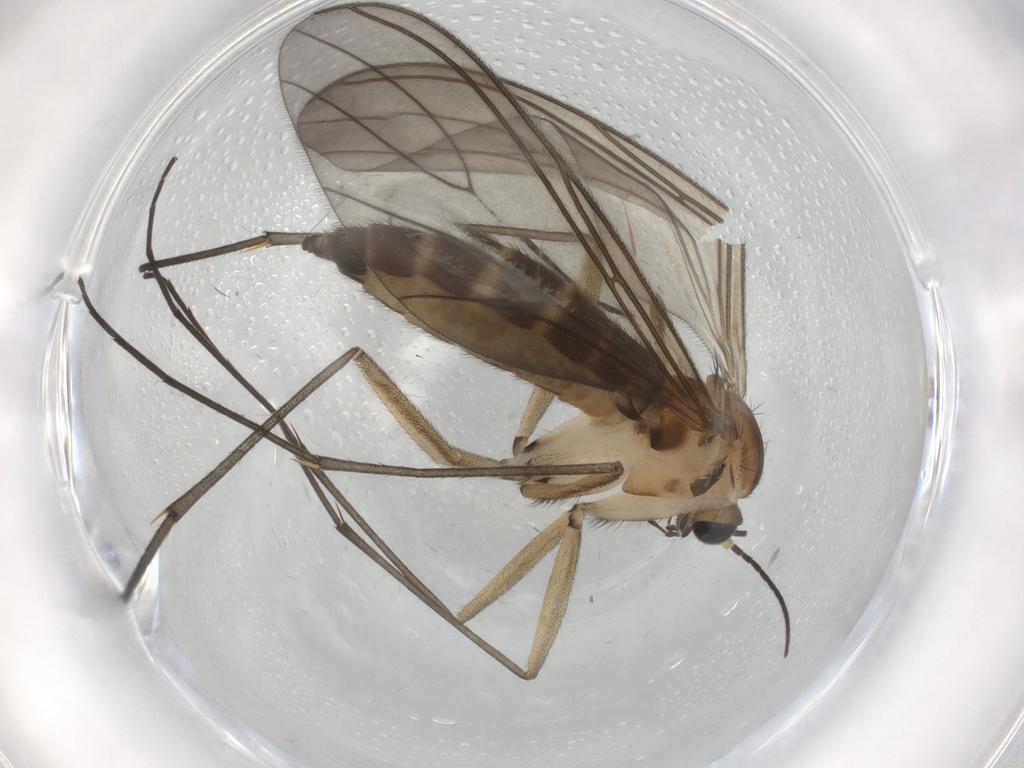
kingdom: Animalia
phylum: Arthropoda
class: Insecta
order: Diptera
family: Sciaridae
